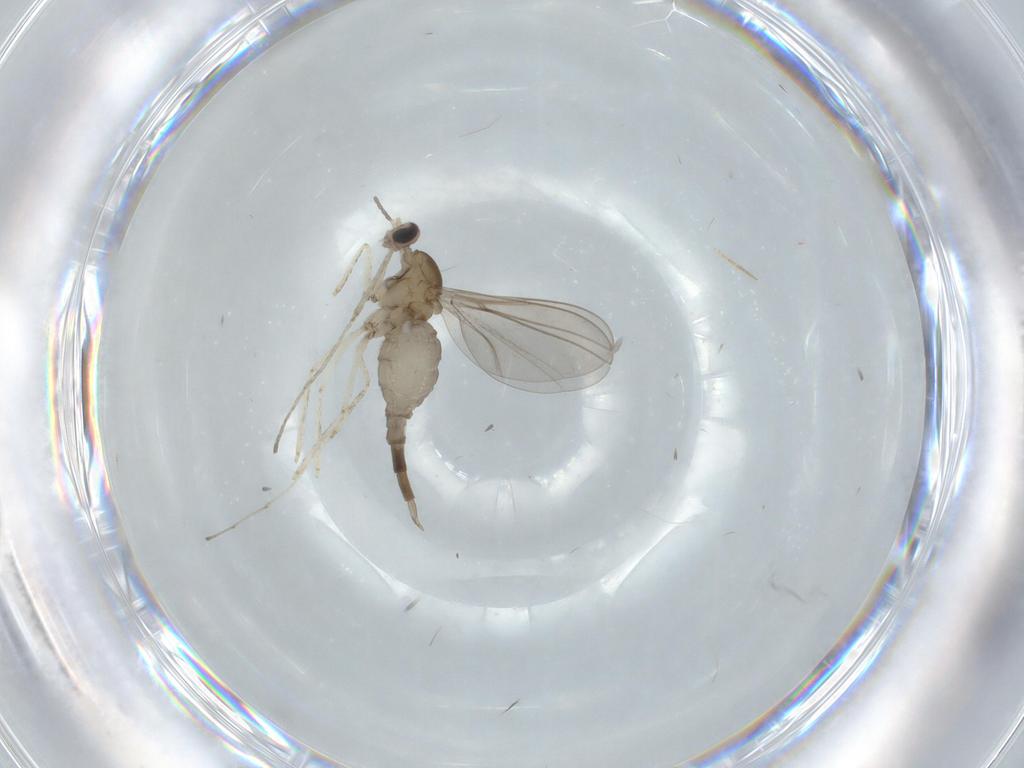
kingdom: Animalia
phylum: Arthropoda
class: Insecta
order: Diptera
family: Cecidomyiidae
